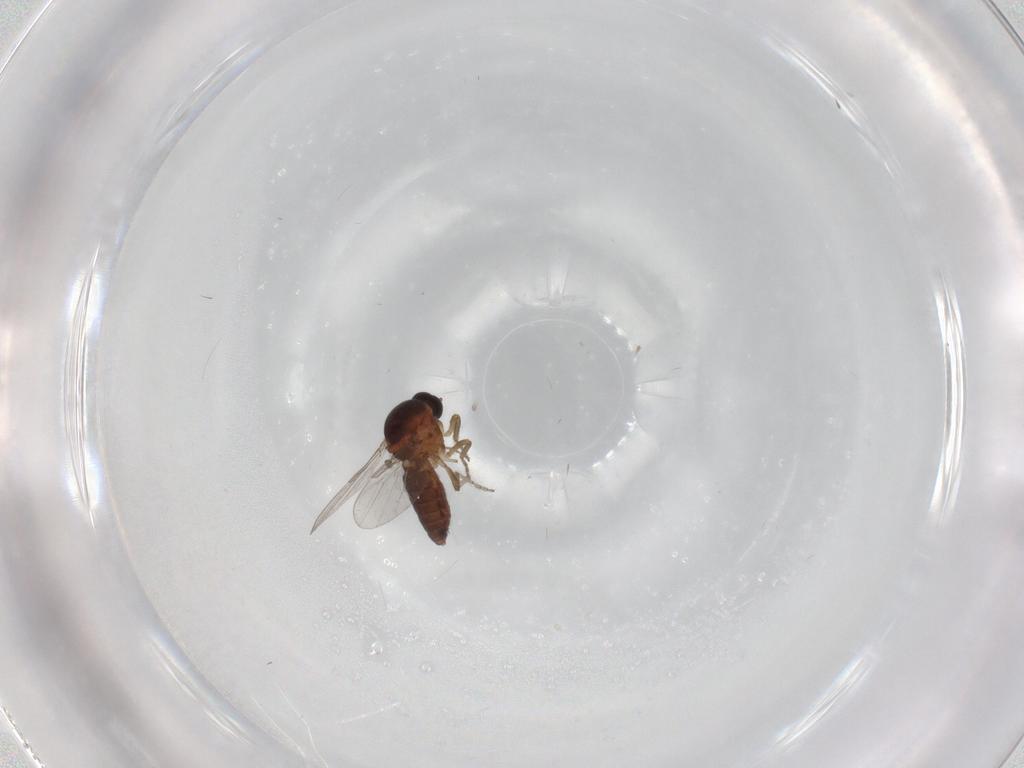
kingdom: Animalia
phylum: Arthropoda
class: Insecta
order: Diptera
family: Ceratopogonidae
